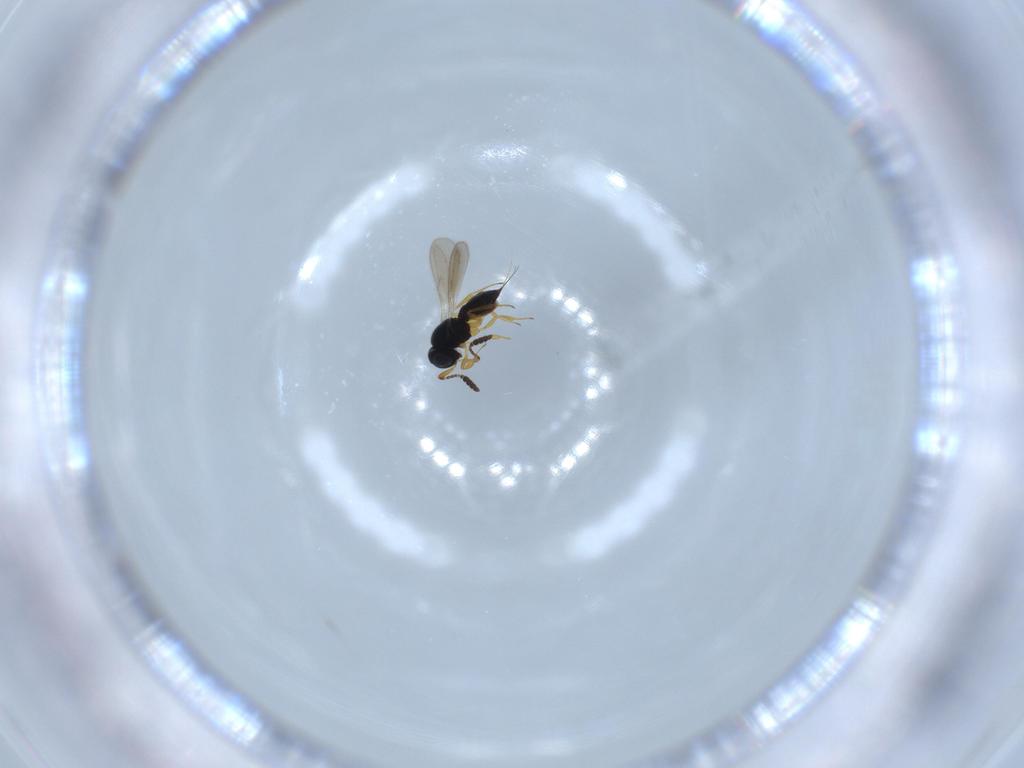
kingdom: Animalia
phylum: Arthropoda
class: Insecta
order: Hymenoptera
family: Scelionidae
